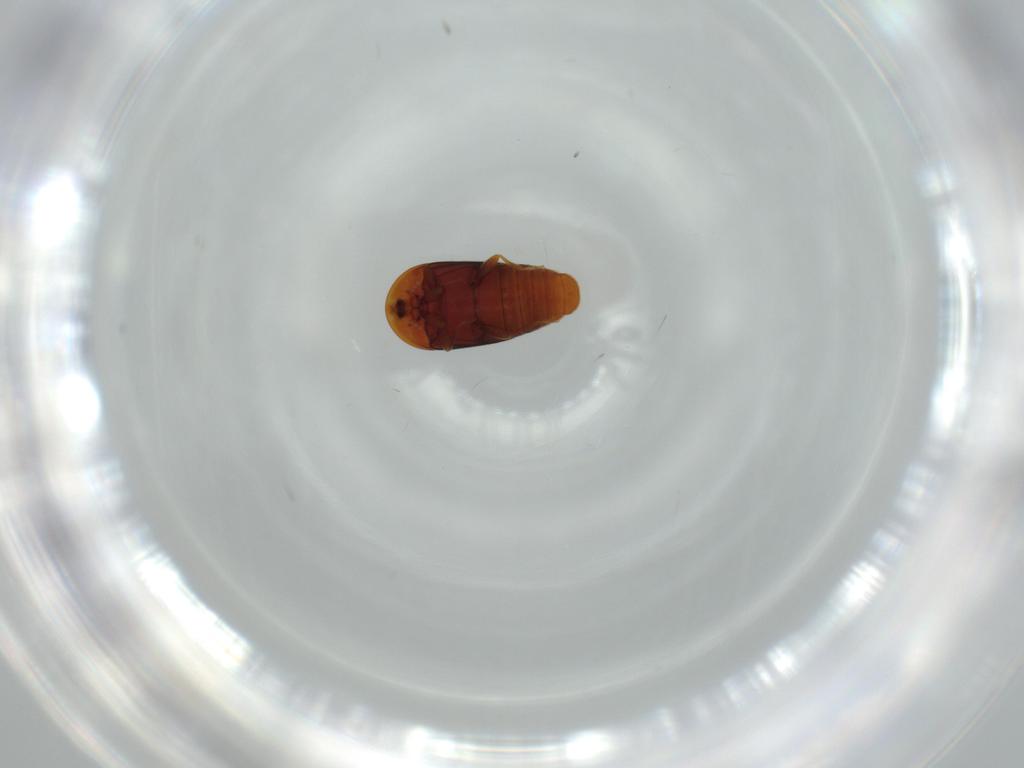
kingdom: Animalia
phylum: Arthropoda
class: Insecta
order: Coleoptera
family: Corylophidae
